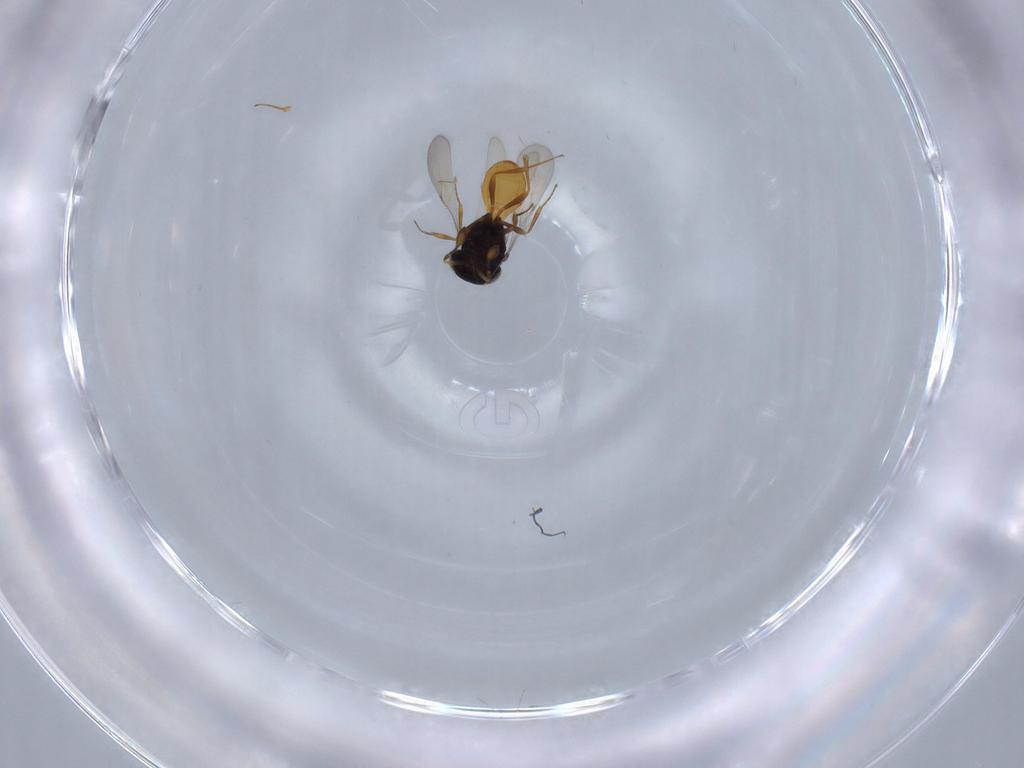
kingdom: Animalia
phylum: Arthropoda
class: Insecta
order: Hymenoptera
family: Scelionidae
